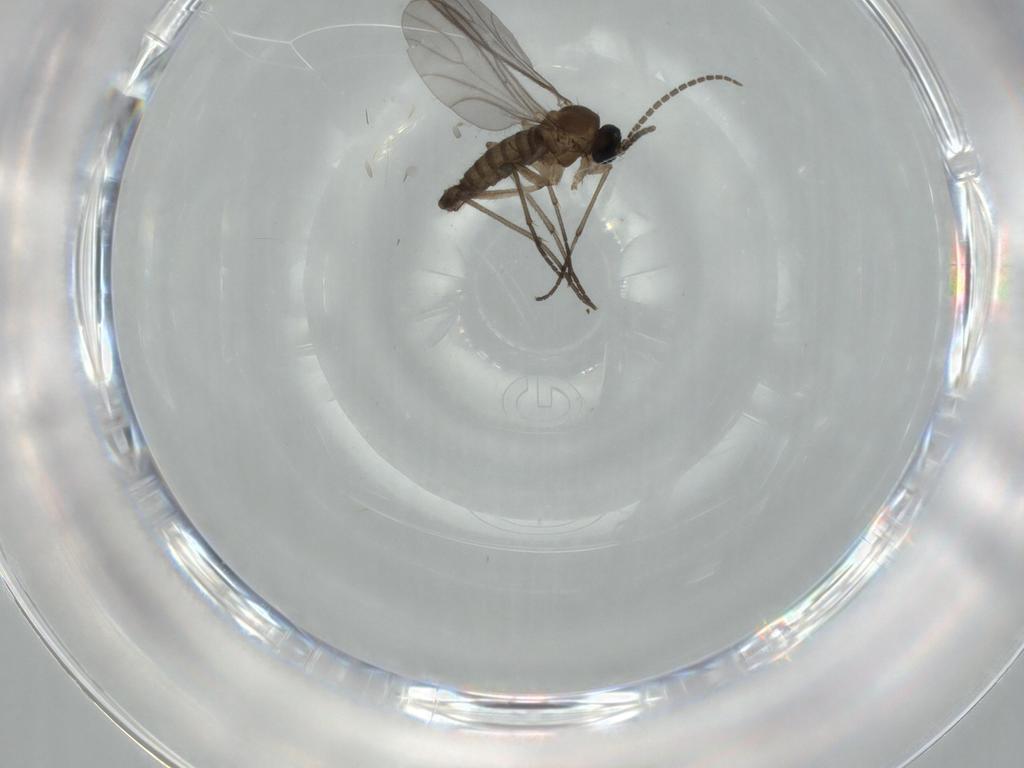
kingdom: Animalia
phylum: Arthropoda
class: Insecta
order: Diptera
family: Sciaridae
